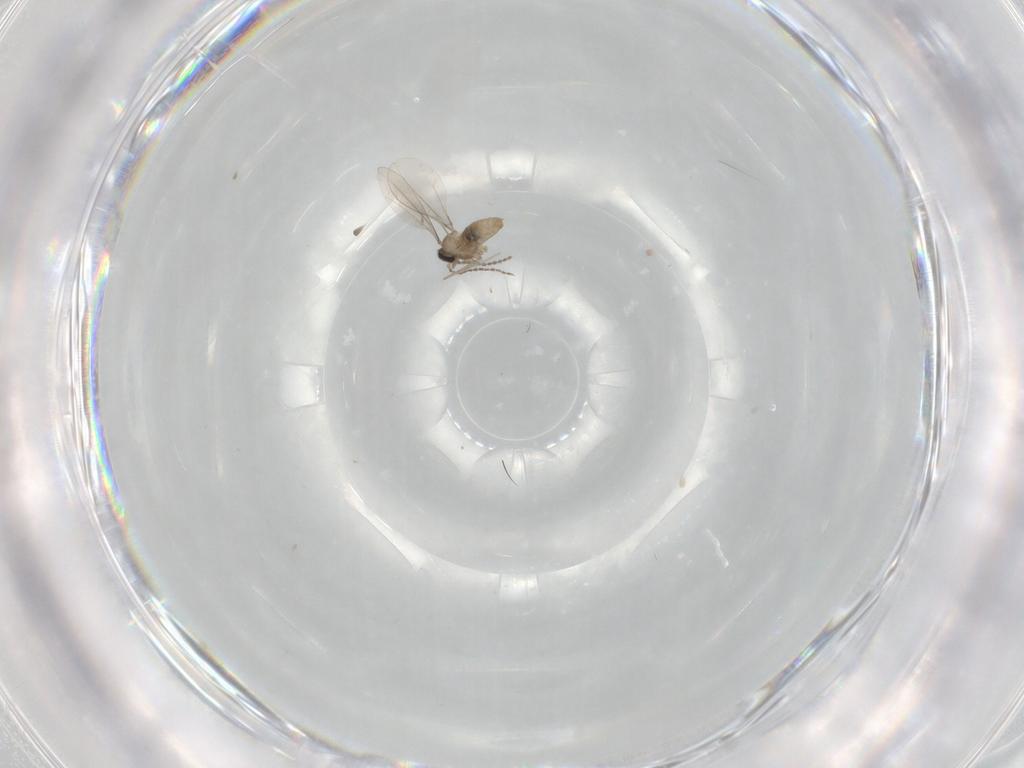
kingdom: Animalia
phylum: Arthropoda
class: Insecta
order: Diptera
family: Cecidomyiidae
